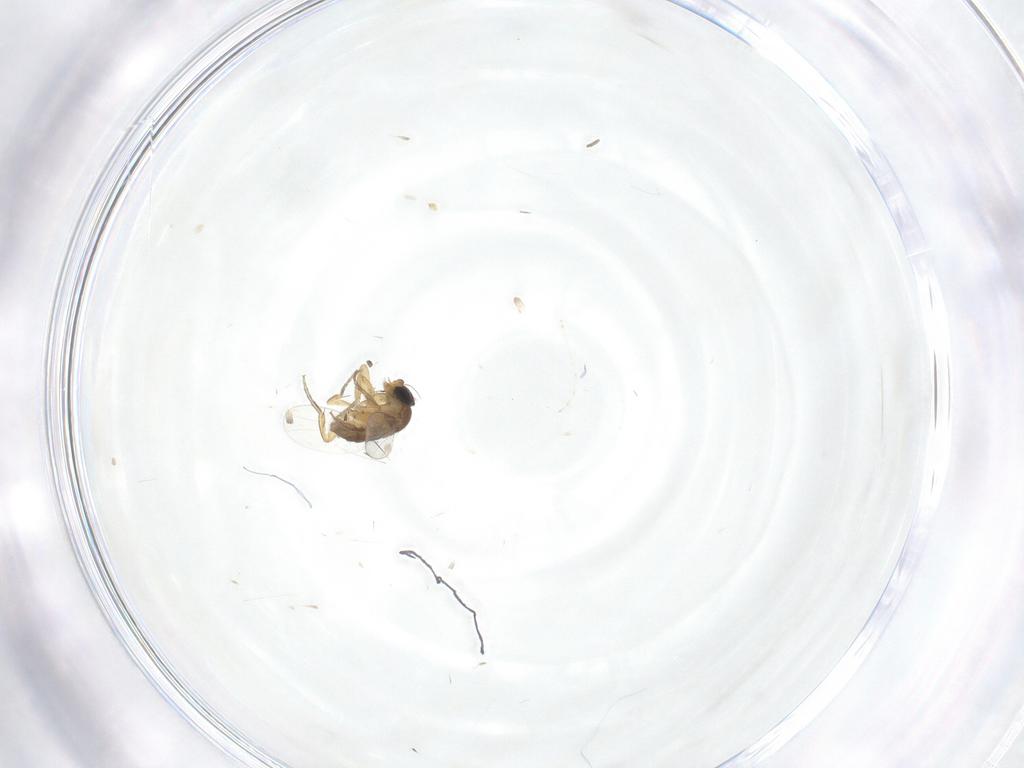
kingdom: Animalia
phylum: Arthropoda
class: Insecta
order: Diptera
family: Phoridae
